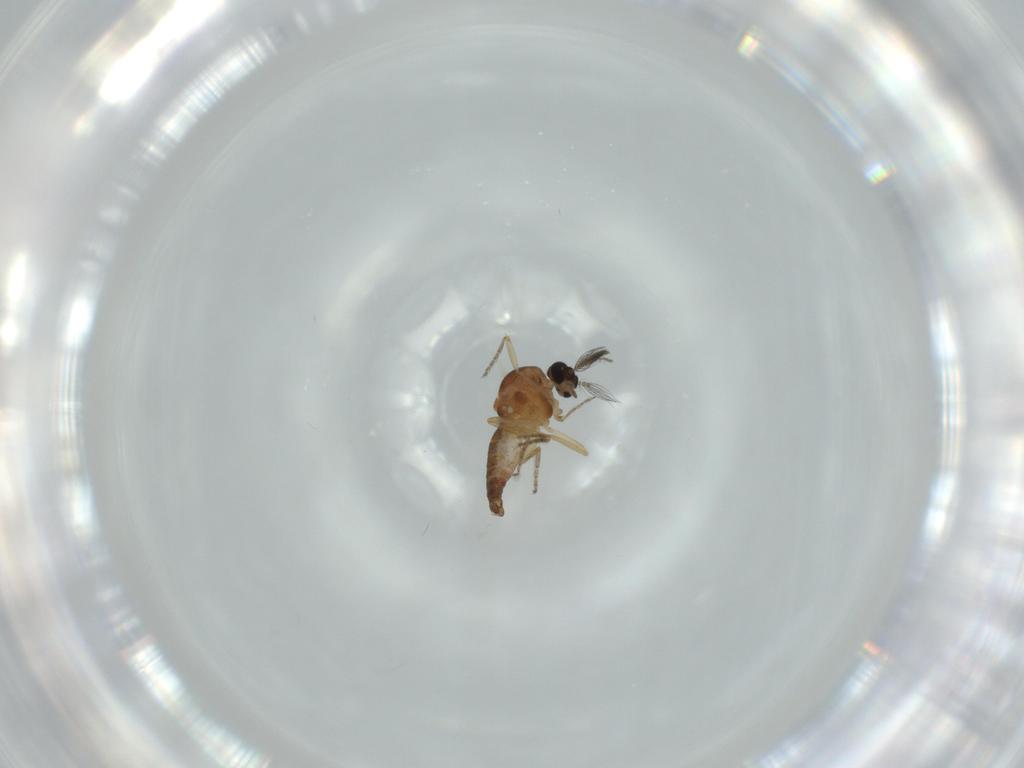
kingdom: Animalia
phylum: Arthropoda
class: Insecta
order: Diptera
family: Ceratopogonidae
